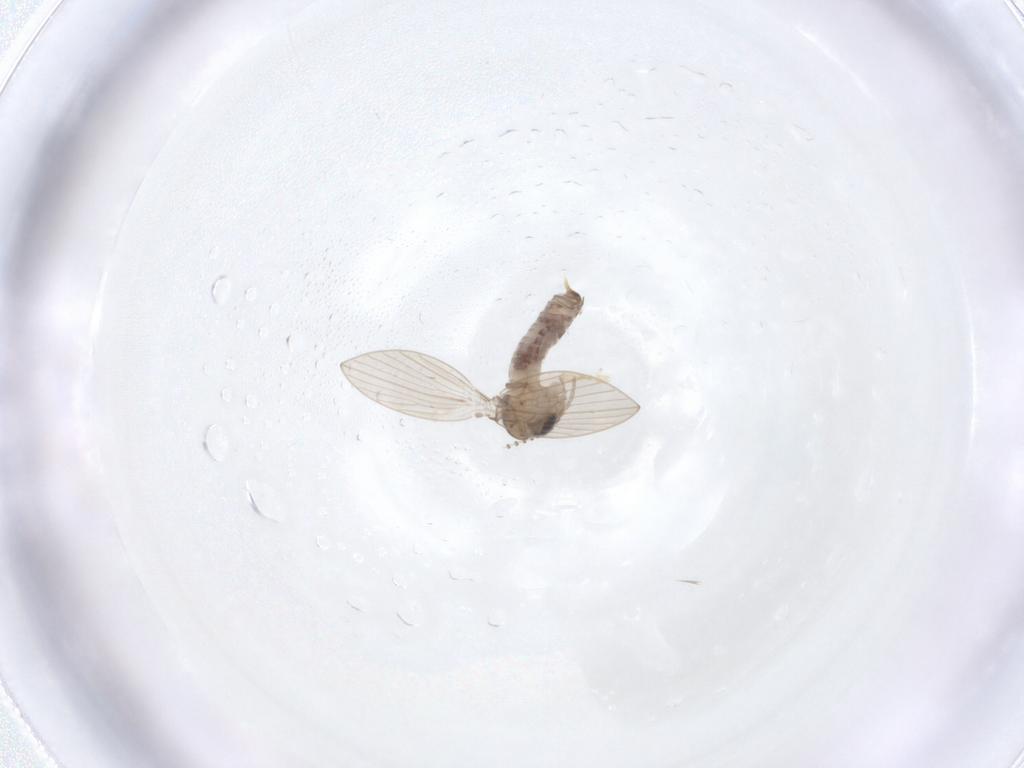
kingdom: Animalia
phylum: Arthropoda
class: Insecta
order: Diptera
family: Psychodidae
